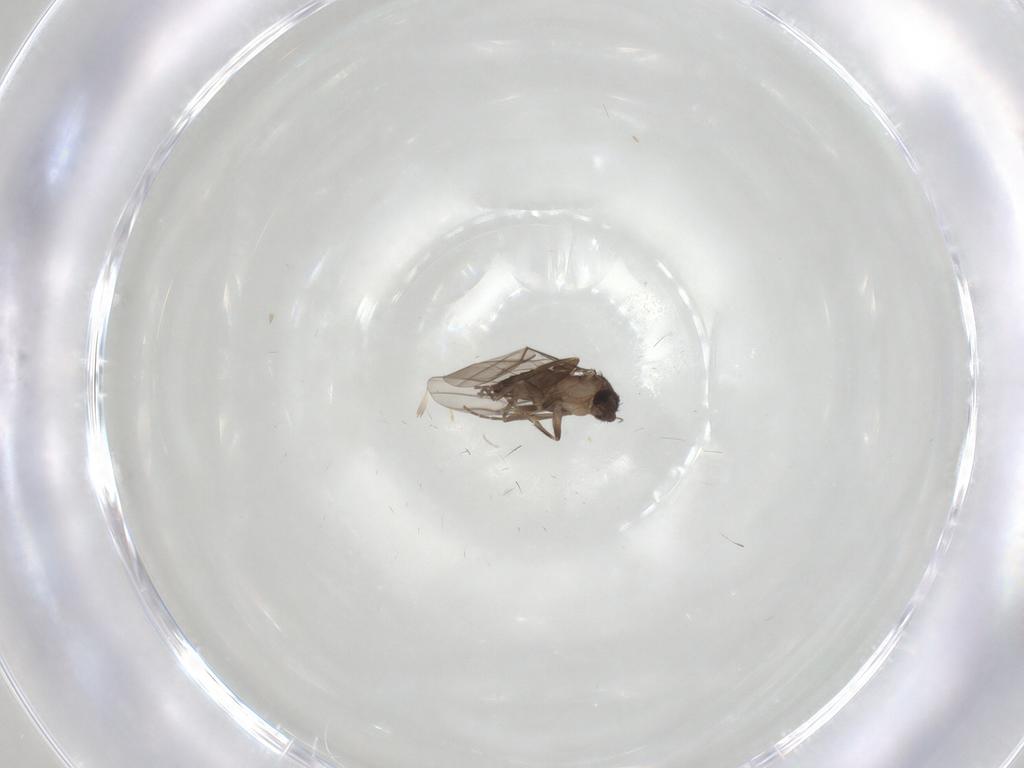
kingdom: Animalia
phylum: Arthropoda
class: Insecta
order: Diptera
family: Chironomidae
